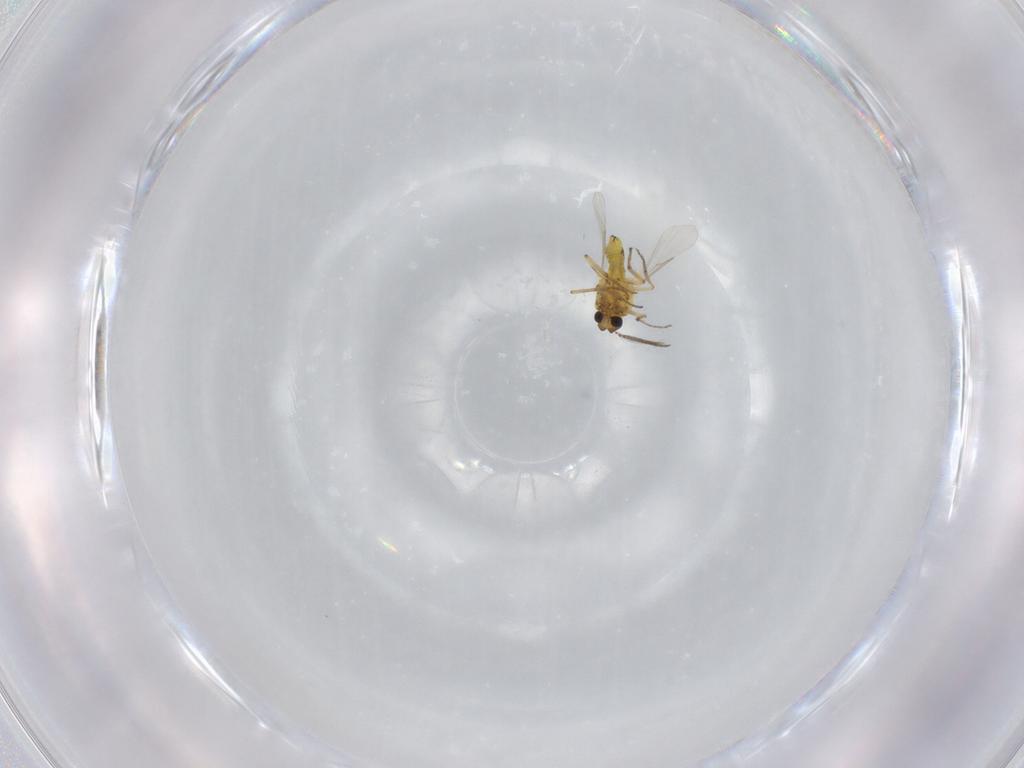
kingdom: Animalia
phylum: Arthropoda
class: Insecta
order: Diptera
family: Ceratopogonidae
